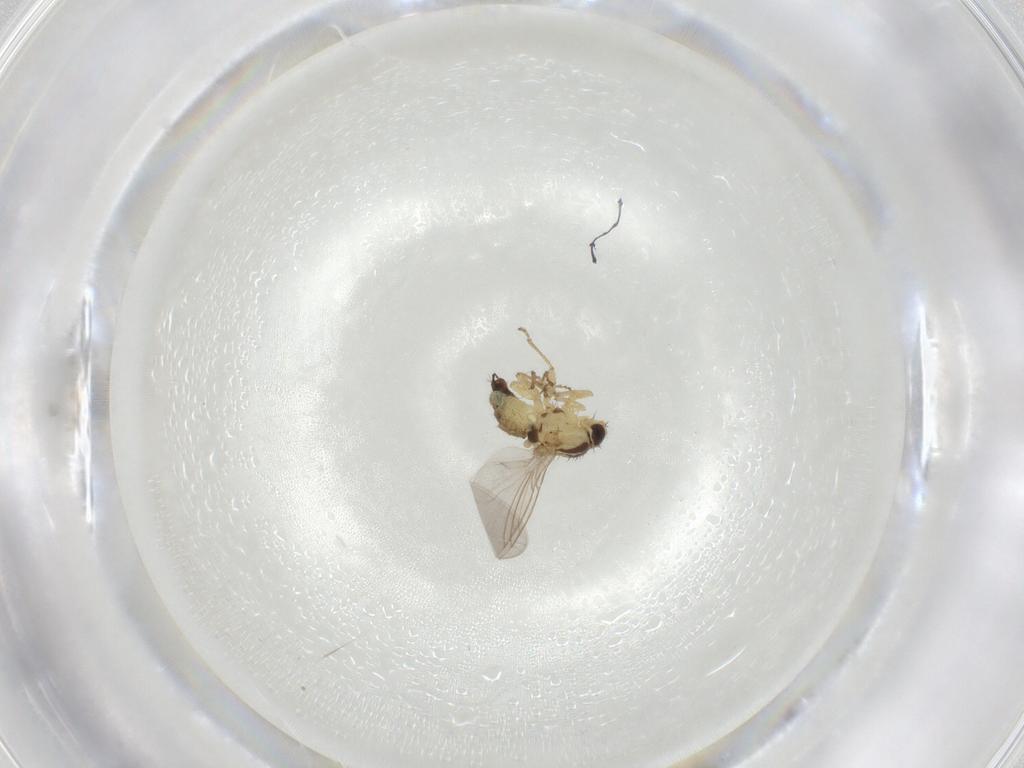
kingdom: Animalia
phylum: Arthropoda
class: Insecta
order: Diptera
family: Agromyzidae
